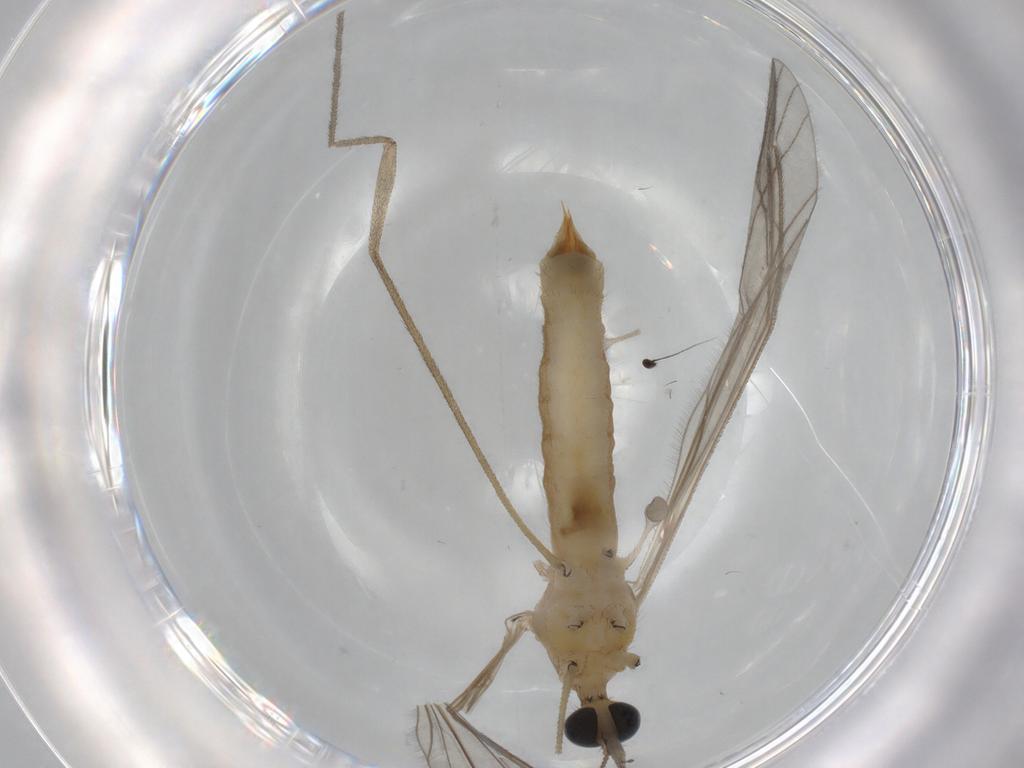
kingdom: Animalia
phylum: Arthropoda
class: Insecta
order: Diptera
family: Ephydridae
